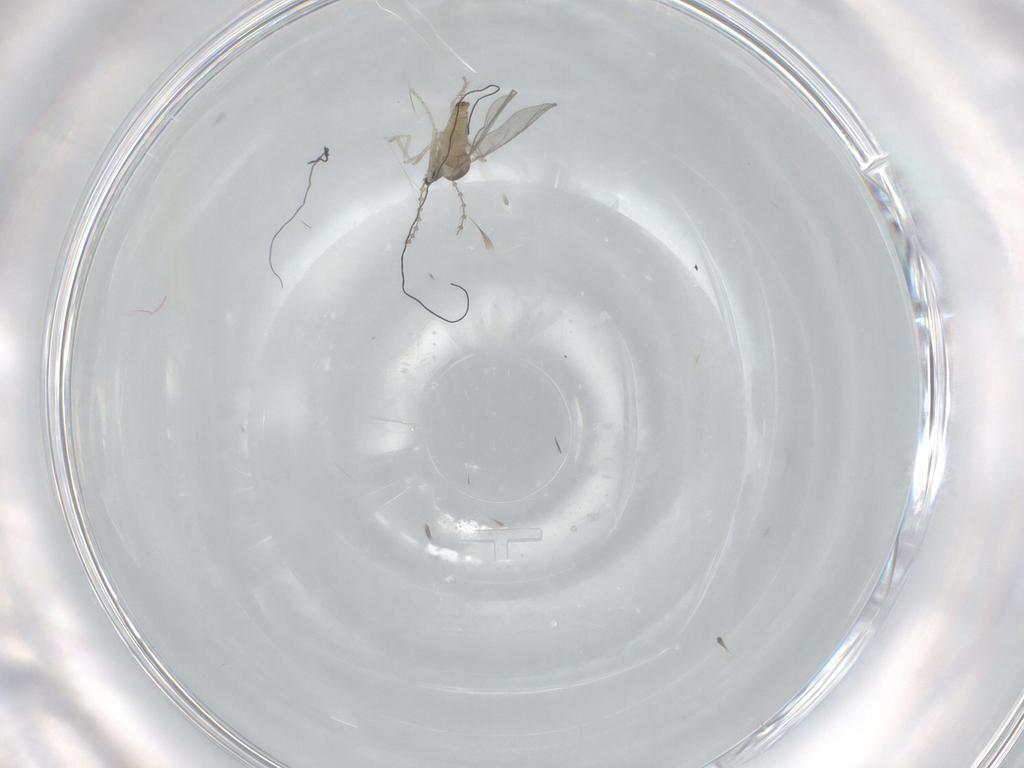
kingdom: Animalia
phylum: Arthropoda
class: Insecta
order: Diptera
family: Cecidomyiidae
